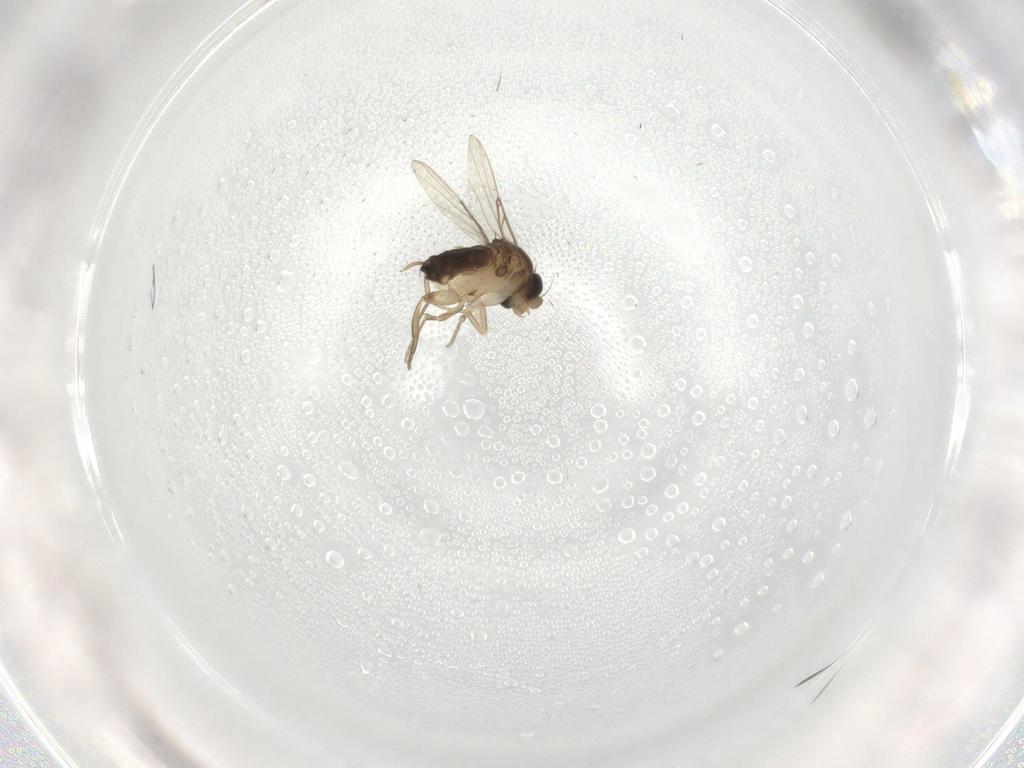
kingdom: Animalia
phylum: Arthropoda
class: Insecta
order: Diptera
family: Phoridae
